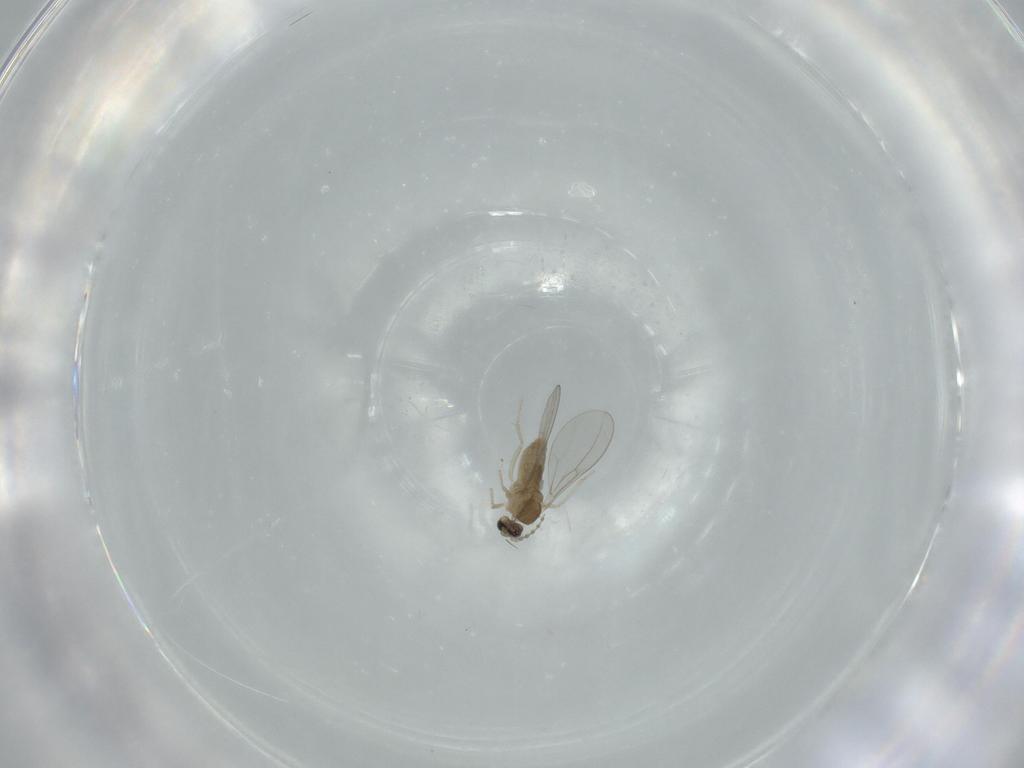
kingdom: Animalia
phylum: Arthropoda
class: Insecta
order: Diptera
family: Cecidomyiidae
